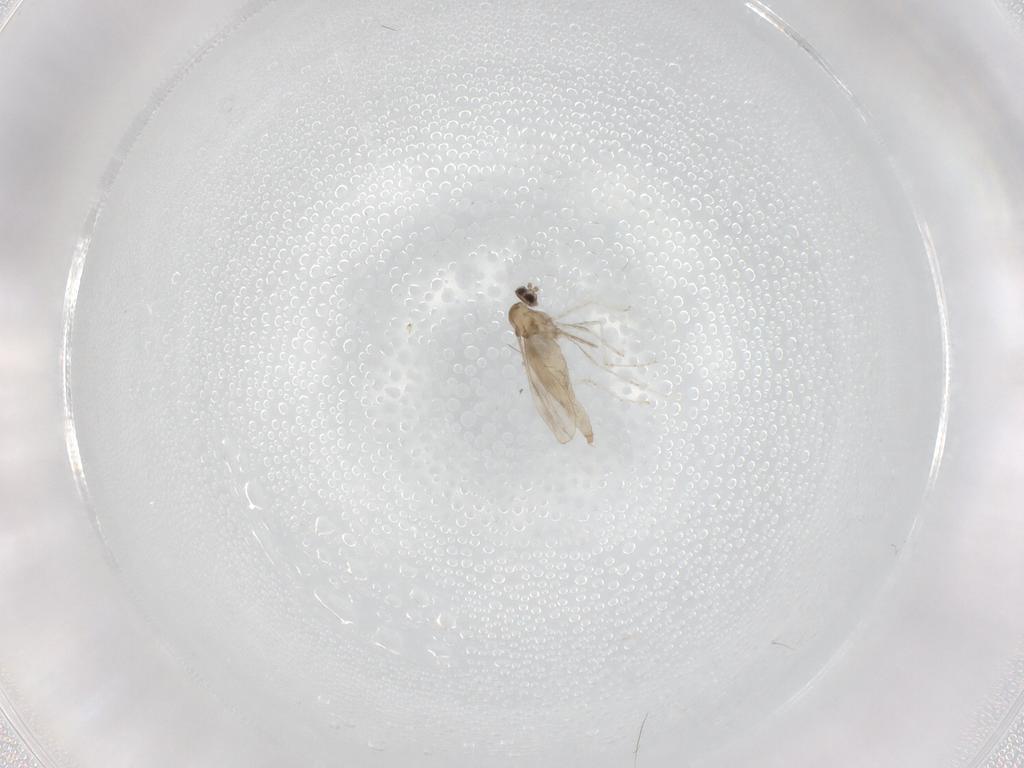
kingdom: Animalia
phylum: Arthropoda
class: Insecta
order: Diptera
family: Cecidomyiidae
